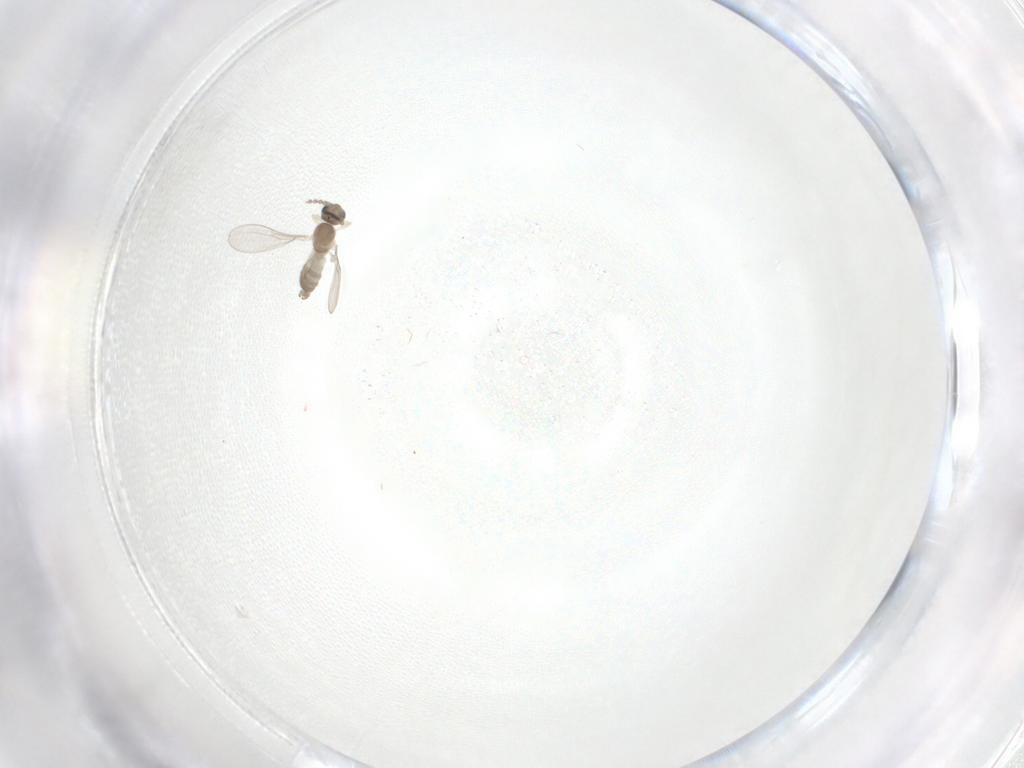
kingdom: Animalia
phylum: Arthropoda
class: Insecta
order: Diptera
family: Cecidomyiidae
